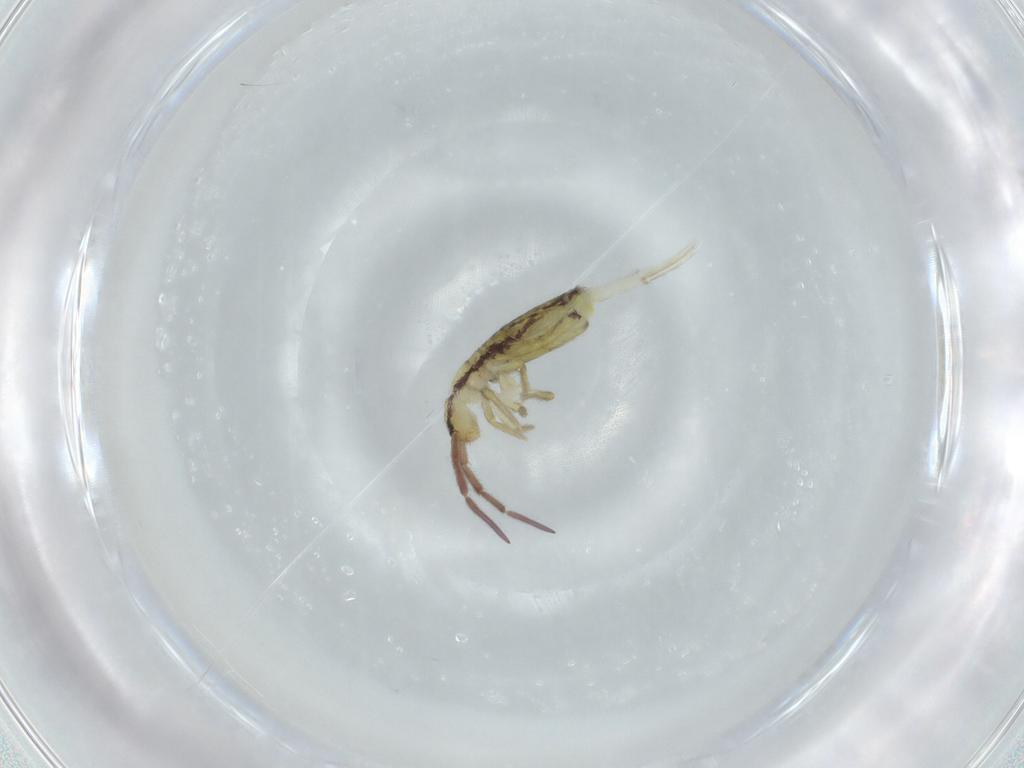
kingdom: Animalia
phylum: Arthropoda
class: Collembola
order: Entomobryomorpha
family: Entomobryidae
